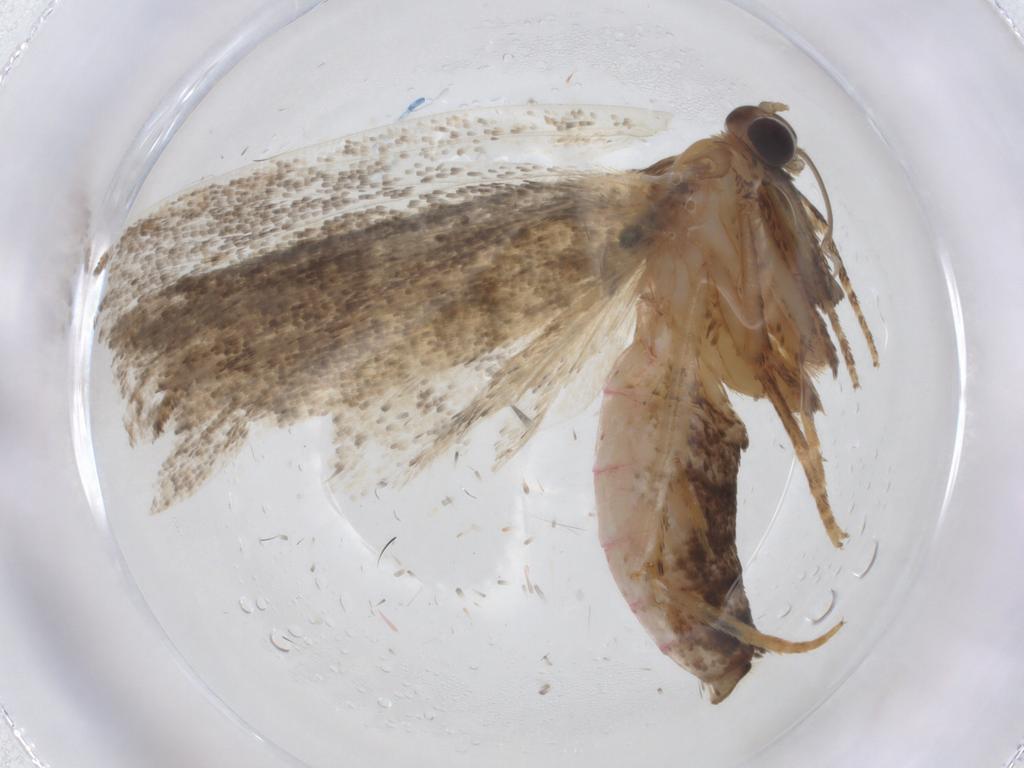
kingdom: Animalia
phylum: Arthropoda
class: Insecta
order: Lepidoptera
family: Tortricidae
